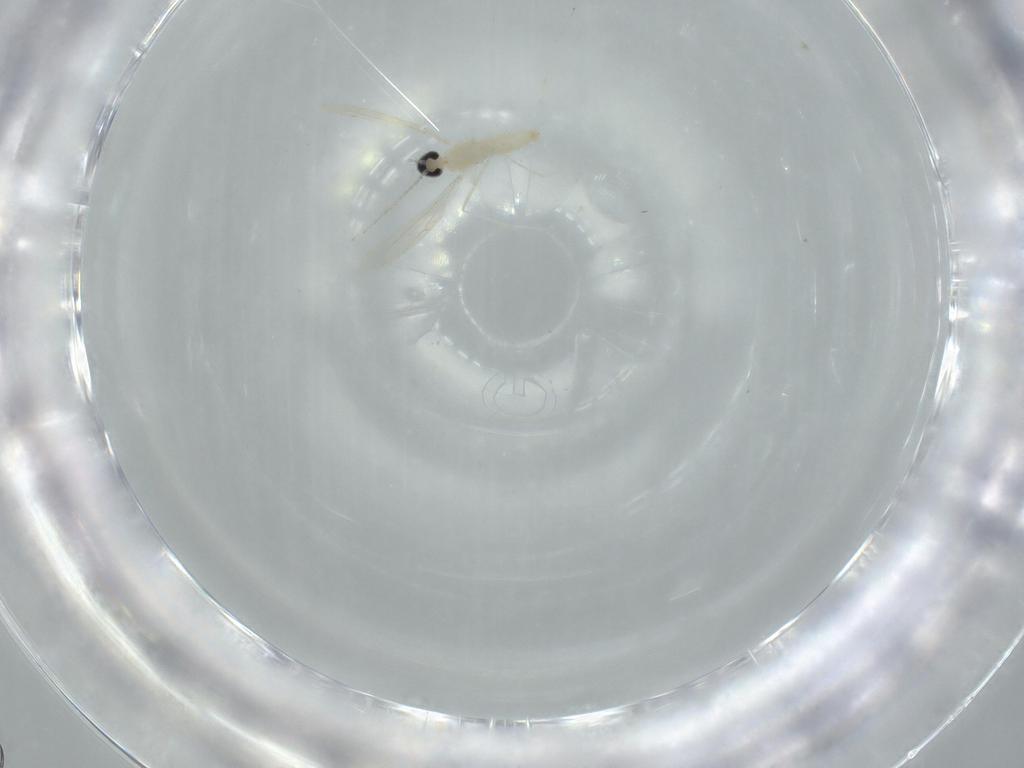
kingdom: Animalia
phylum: Arthropoda
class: Insecta
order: Diptera
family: Cecidomyiidae
